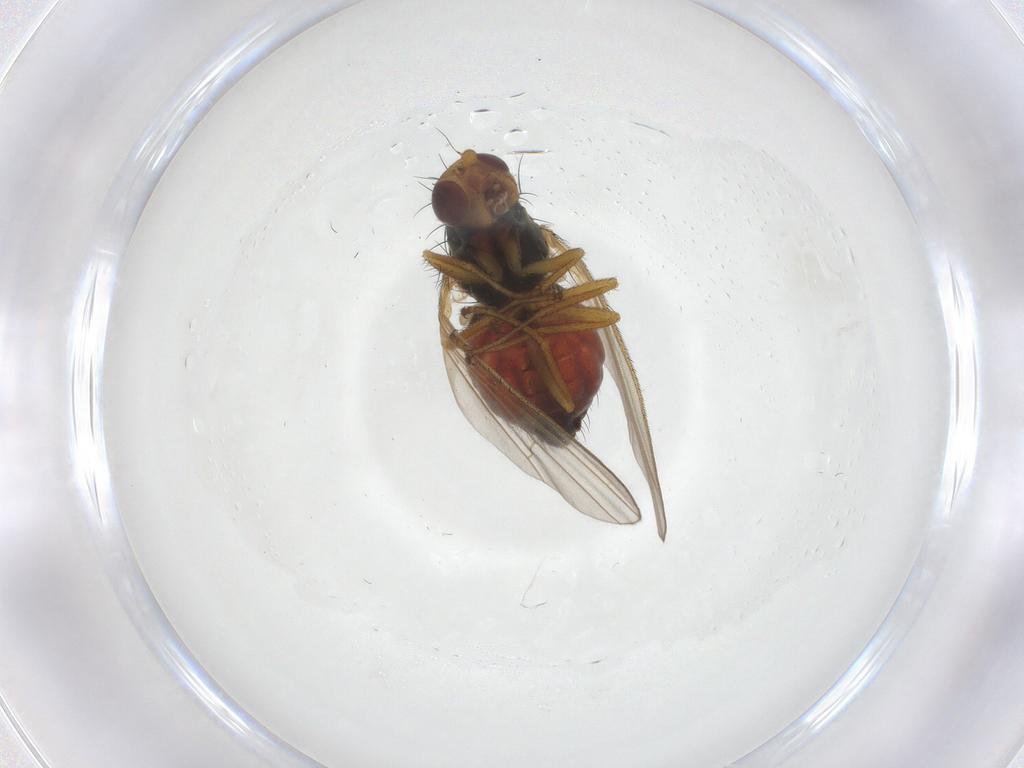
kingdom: Animalia
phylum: Arthropoda
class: Insecta
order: Diptera
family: Heleomyzidae
